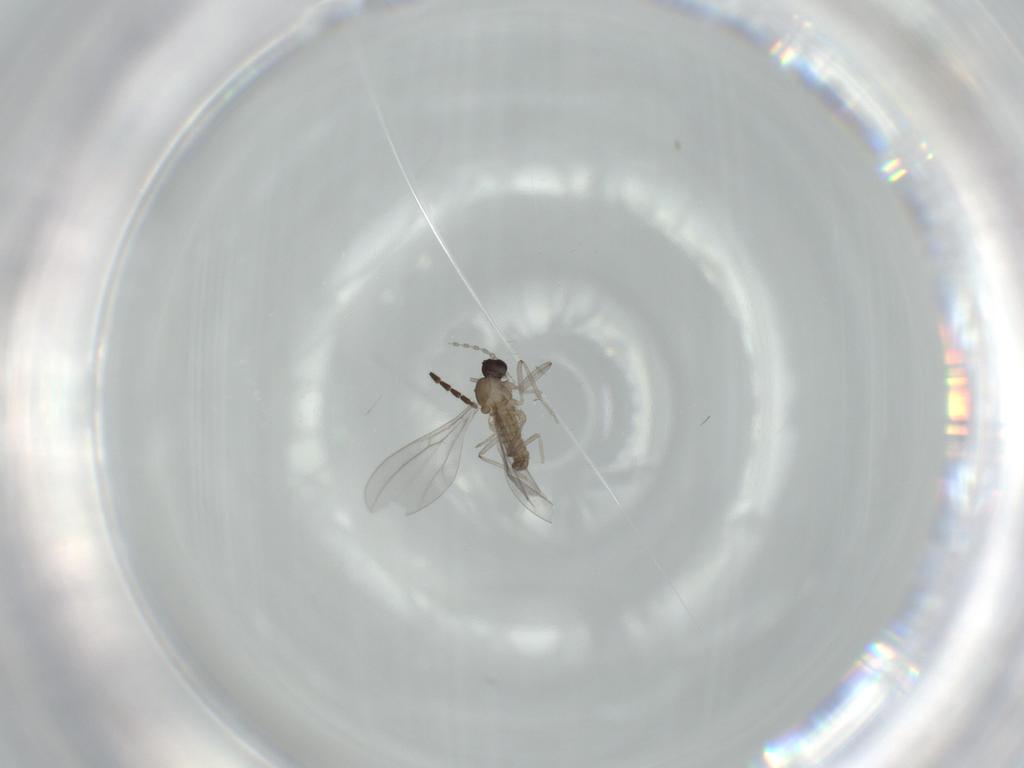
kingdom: Animalia
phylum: Arthropoda
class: Insecta
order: Diptera
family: Cecidomyiidae
